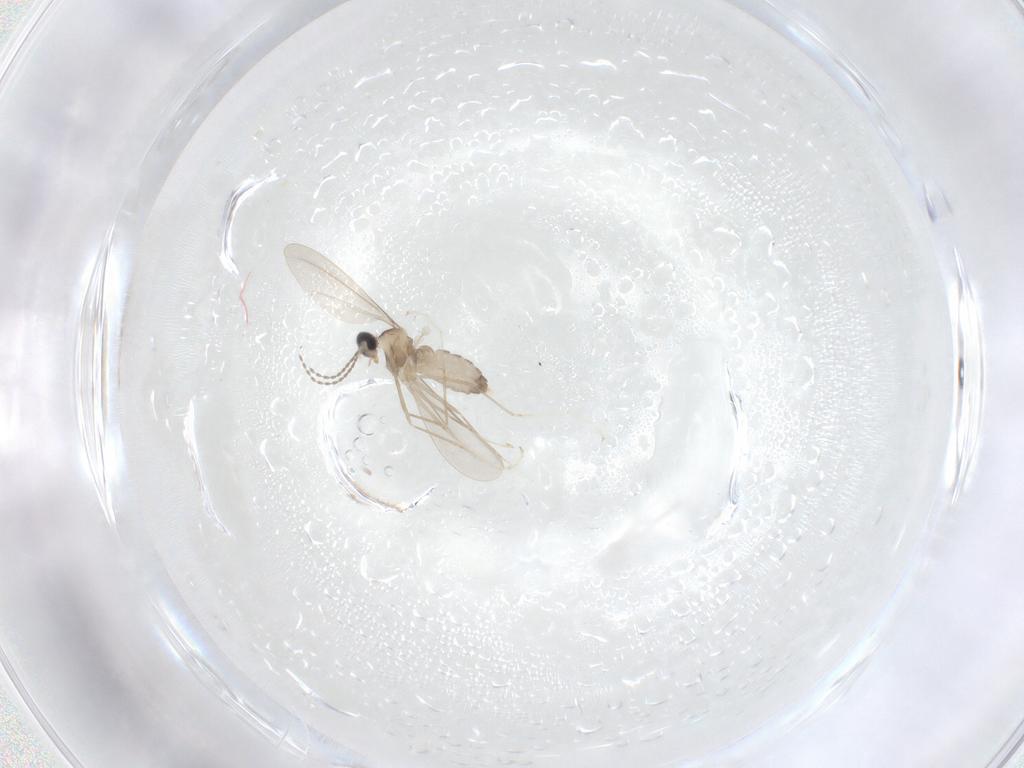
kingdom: Animalia
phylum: Arthropoda
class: Insecta
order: Diptera
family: Cecidomyiidae
